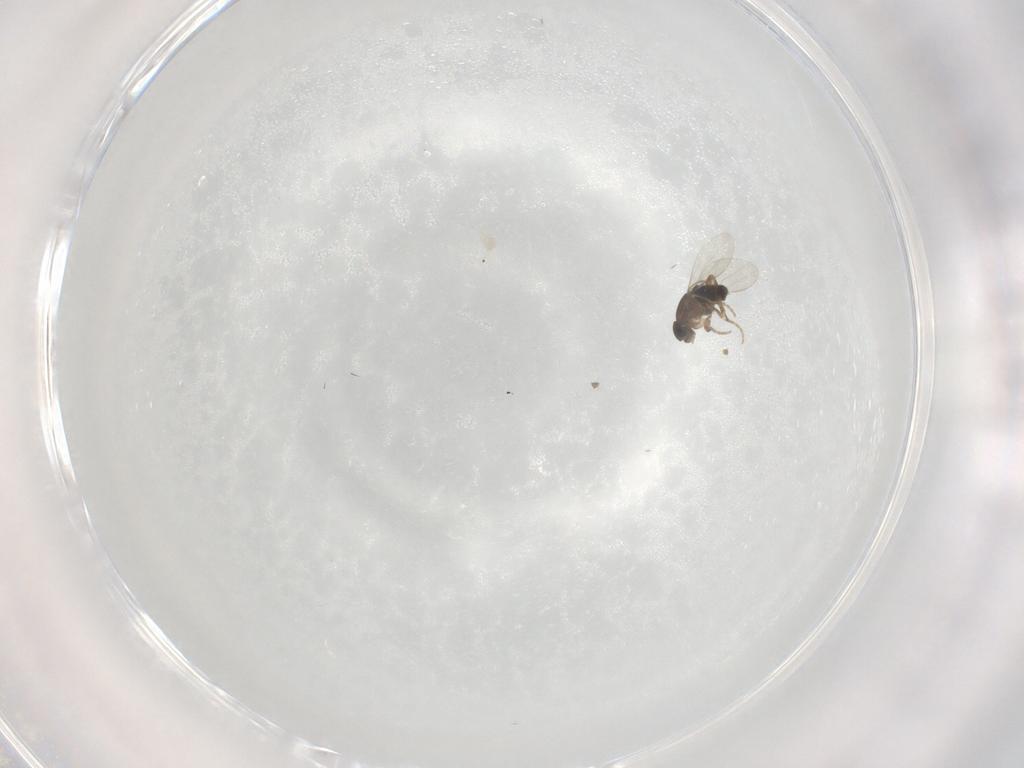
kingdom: Animalia
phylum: Arthropoda
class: Insecta
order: Diptera
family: Phoridae
